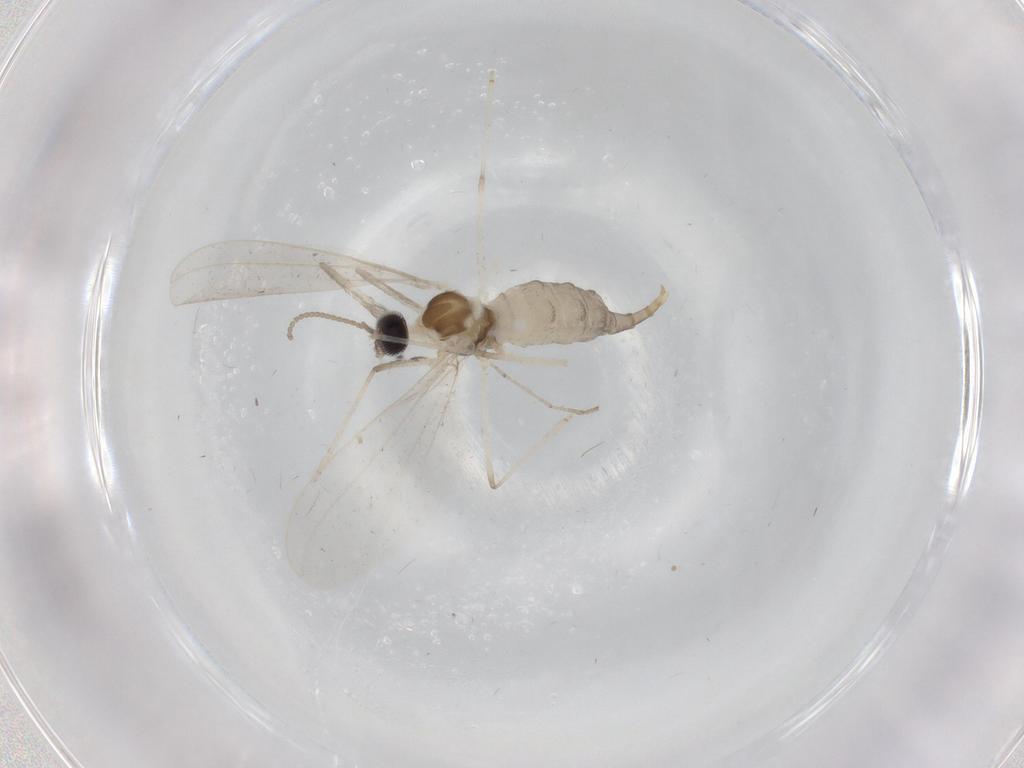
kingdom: Animalia
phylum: Arthropoda
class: Insecta
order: Diptera
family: Cecidomyiidae
